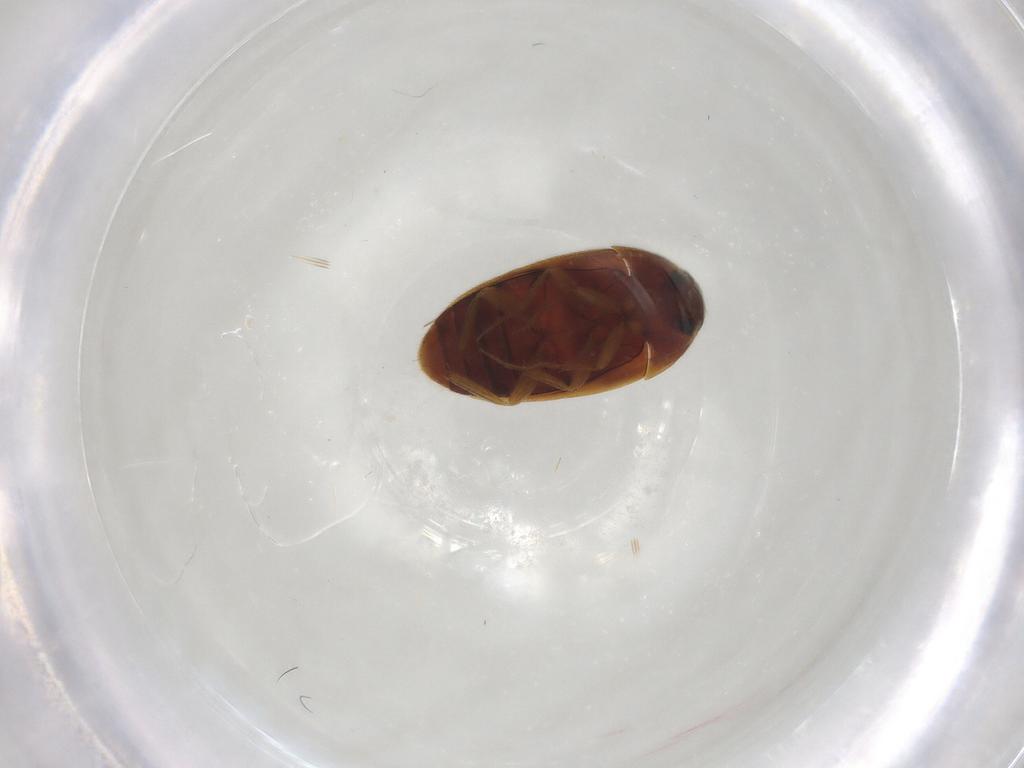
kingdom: Animalia
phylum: Arthropoda
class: Insecta
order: Coleoptera
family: Mycetophagidae
